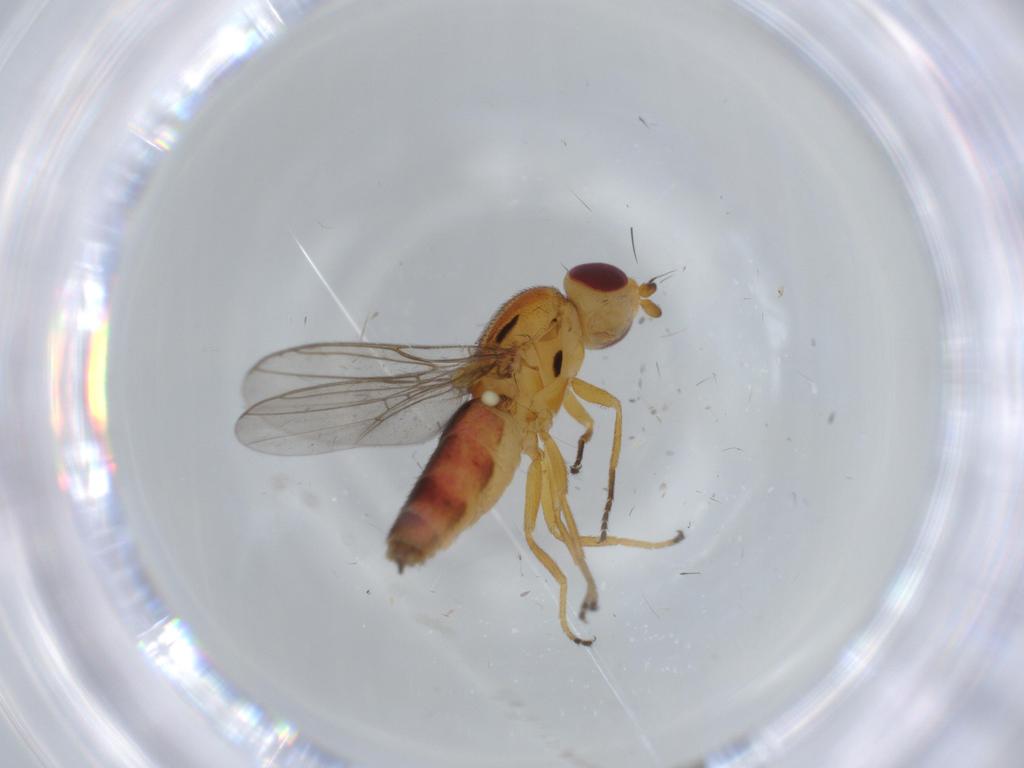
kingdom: Animalia
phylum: Arthropoda
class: Insecta
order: Diptera
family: Chloropidae
